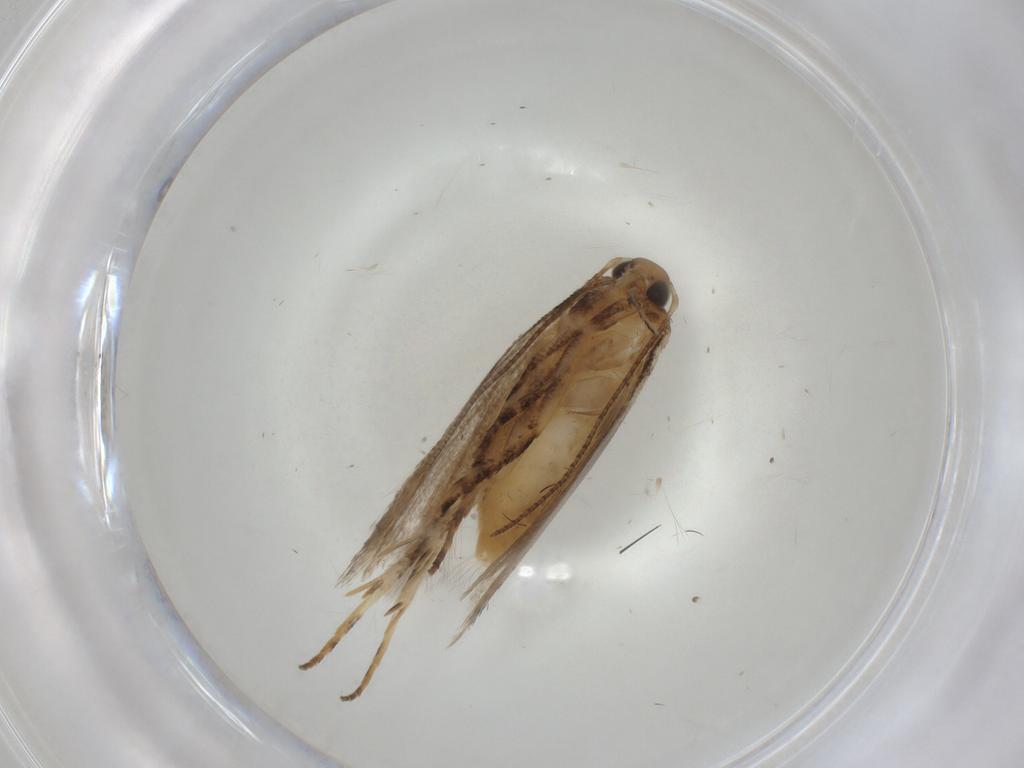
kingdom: Animalia
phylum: Arthropoda
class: Insecta
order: Lepidoptera
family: Gelechiidae
